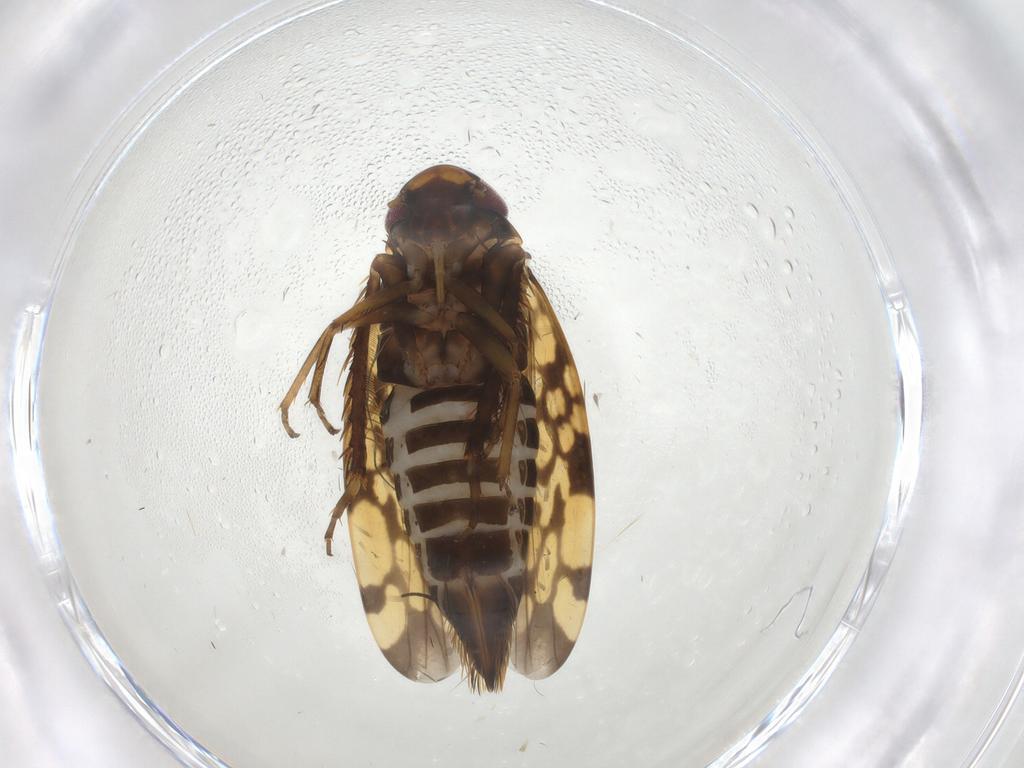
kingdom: Animalia
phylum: Arthropoda
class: Insecta
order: Hemiptera
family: Cicadellidae
